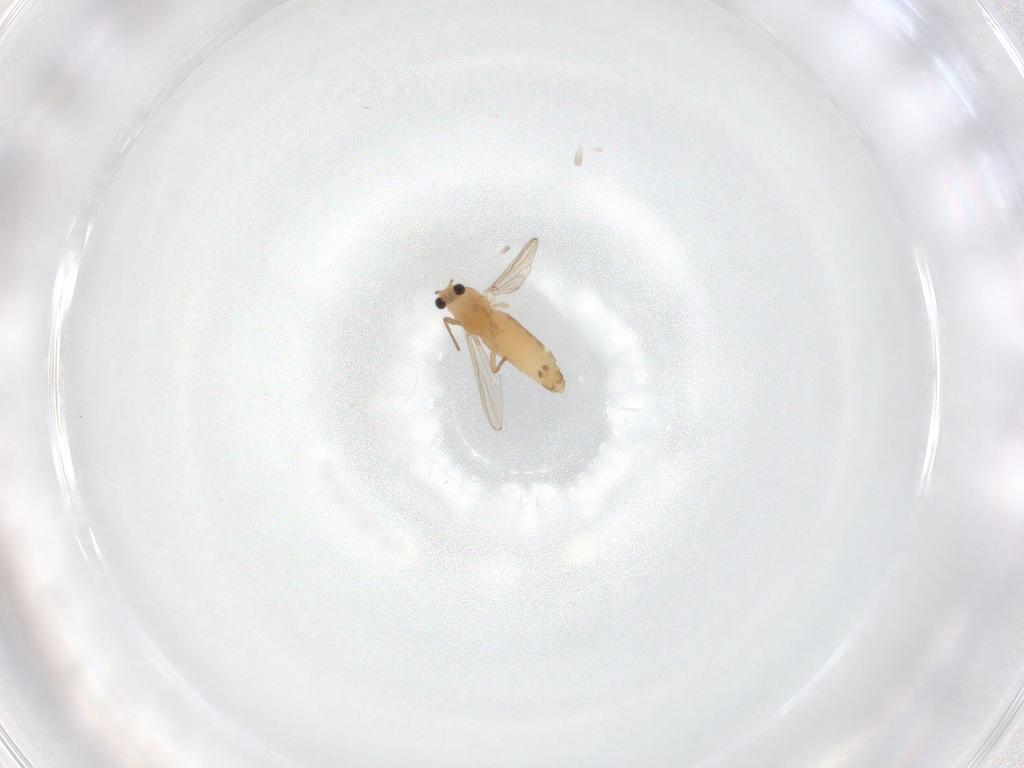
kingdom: Animalia
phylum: Arthropoda
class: Insecta
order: Diptera
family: Chironomidae
